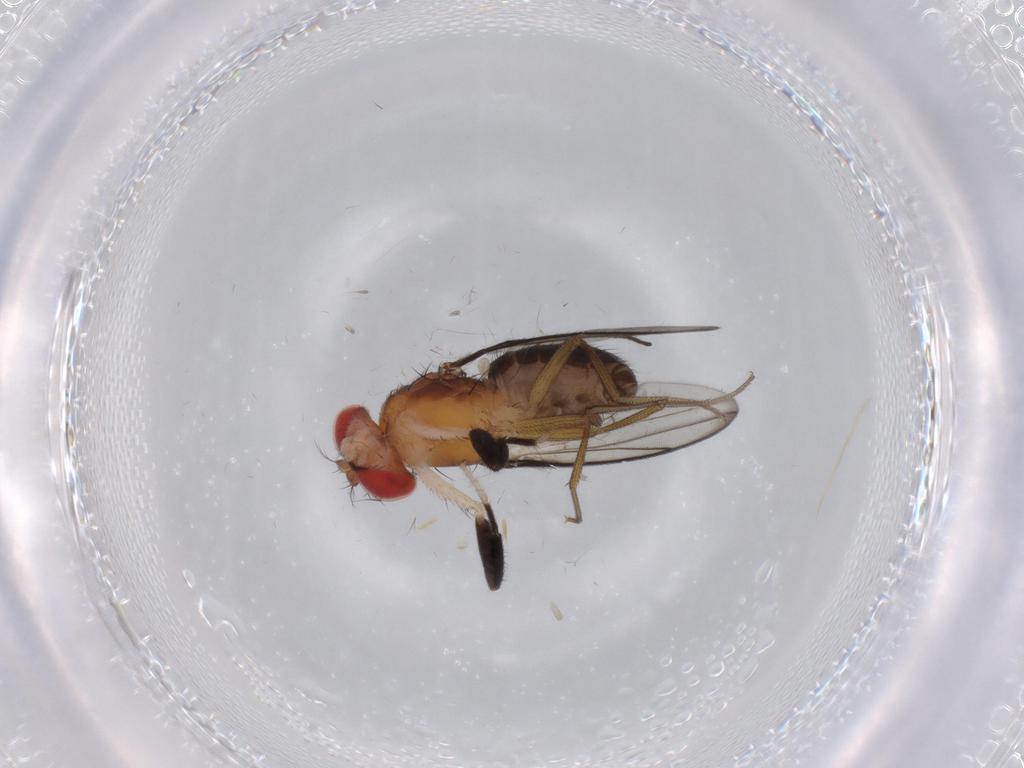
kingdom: Animalia
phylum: Arthropoda
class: Insecta
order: Diptera
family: Drosophilidae
